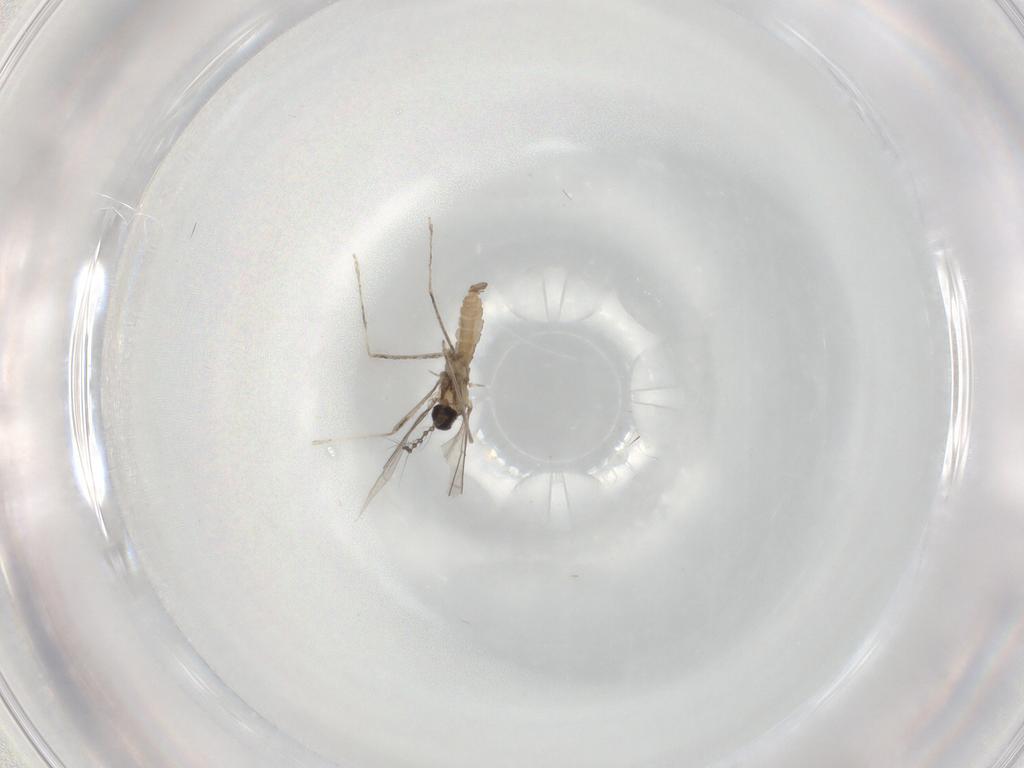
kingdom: Animalia
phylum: Arthropoda
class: Insecta
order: Diptera
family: Cecidomyiidae
